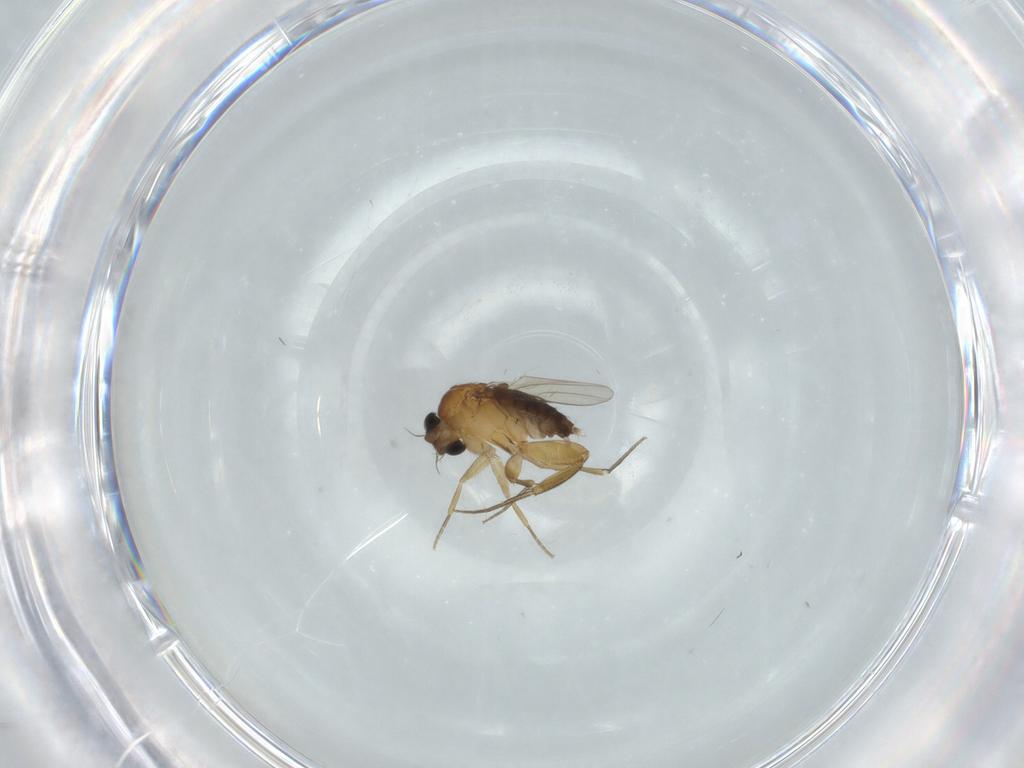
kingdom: Animalia
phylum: Arthropoda
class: Insecta
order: Diptera
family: Phoridae
